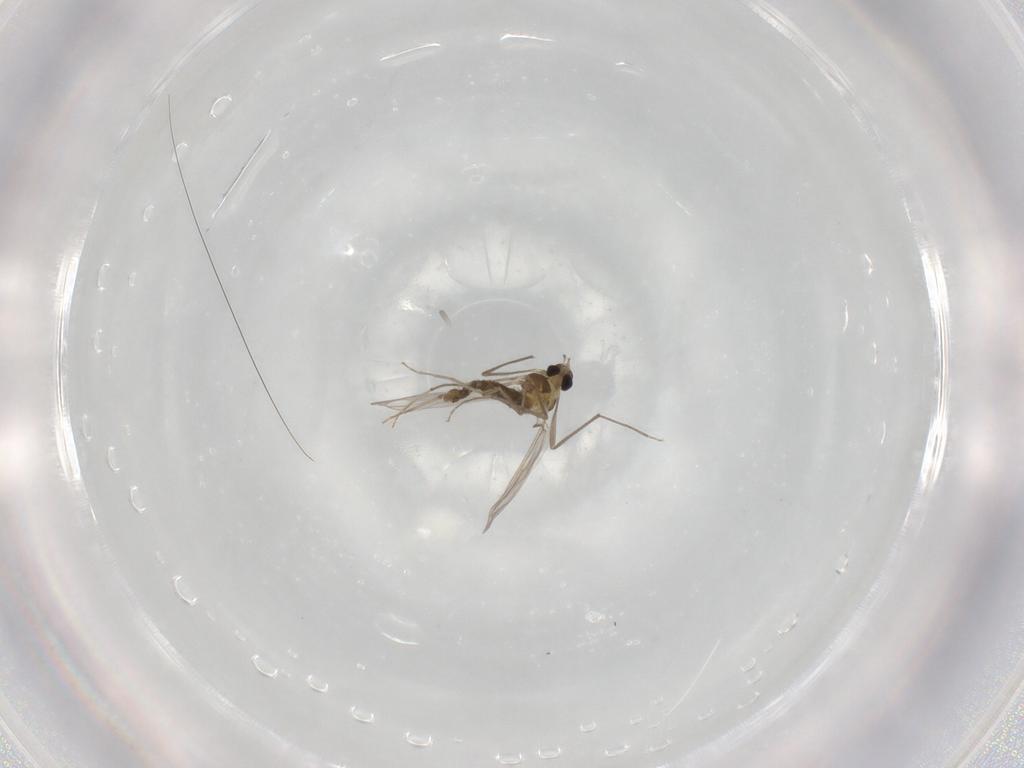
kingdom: Animalia
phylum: Arthropoda
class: Insecta
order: Diptera
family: Chironomidae
